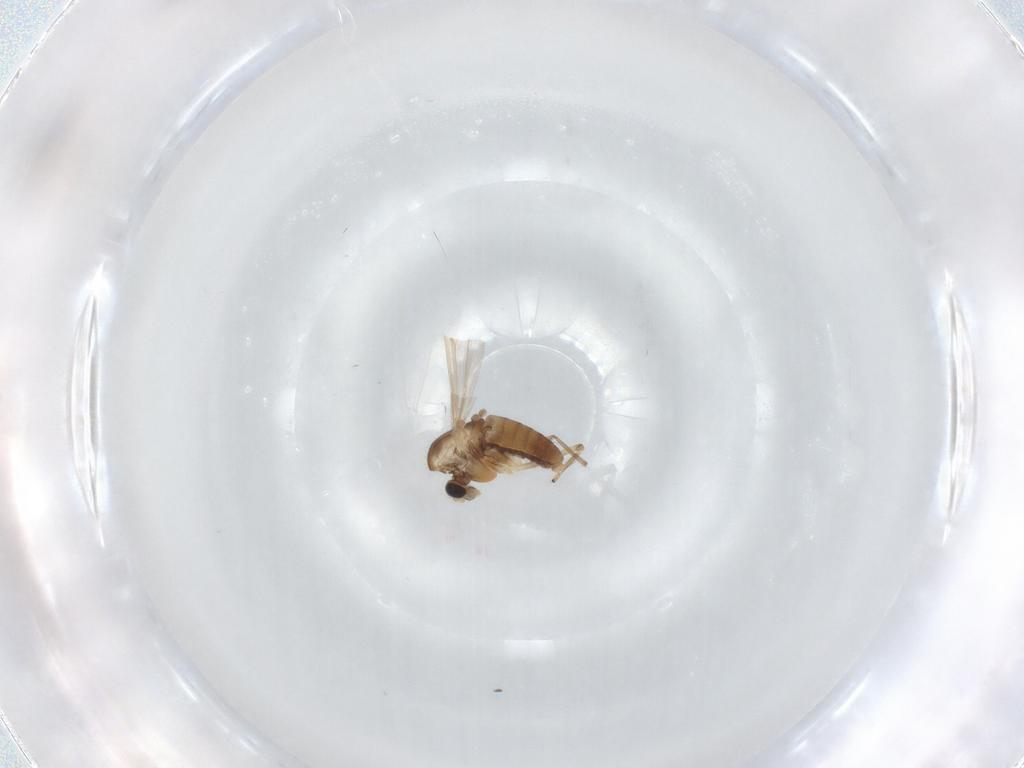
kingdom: Animalia
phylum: Arthropoda
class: Insecta
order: Diptera
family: Chironomidae
